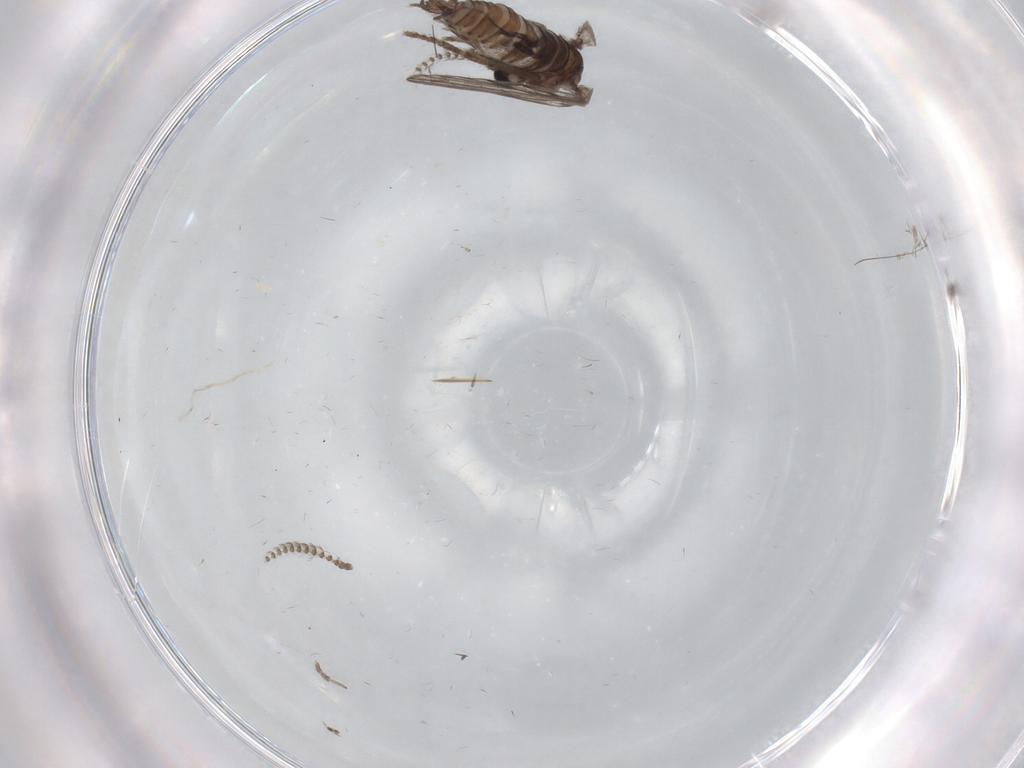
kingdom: Animalia
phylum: Arthropoda
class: Insecta
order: Diptera
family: Psychodidae
